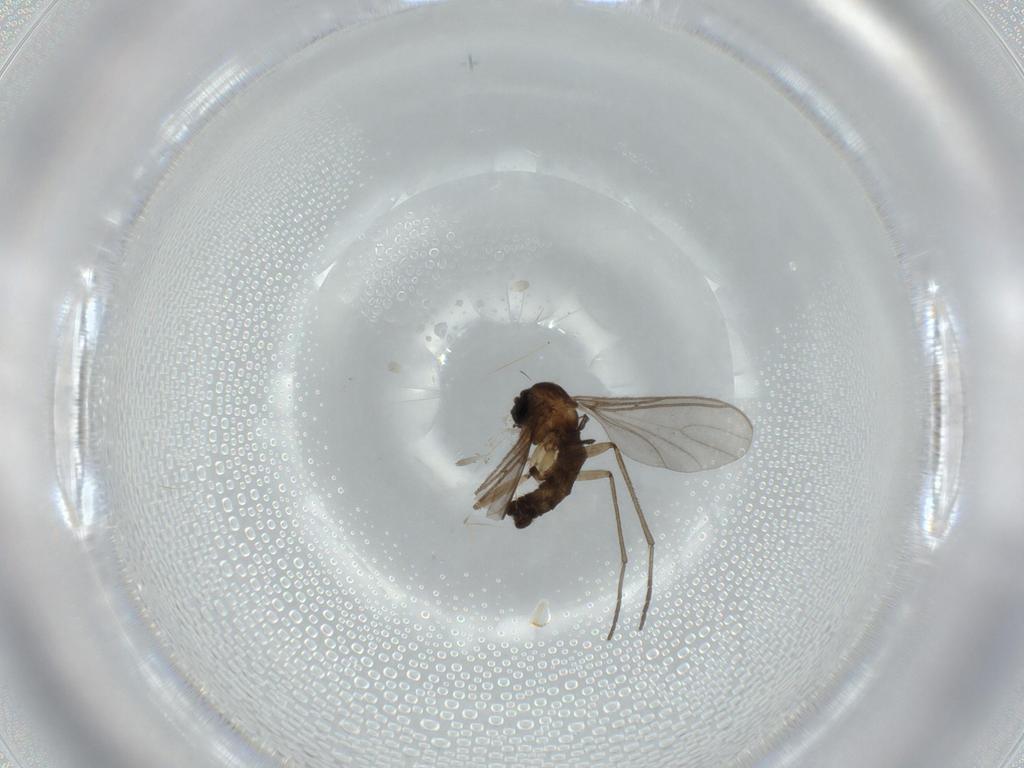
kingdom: Animalia
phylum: Arthropoda
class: Insecta
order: Diptera
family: Sciaridae
